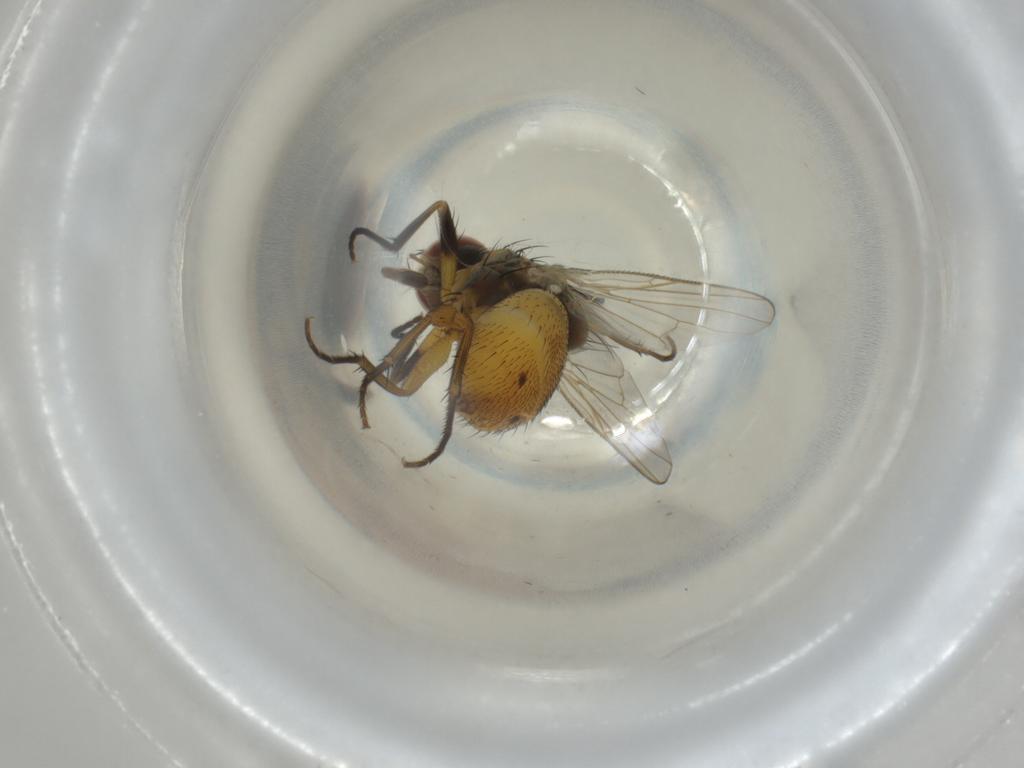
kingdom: Animalia
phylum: Arthropoda
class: Insecta
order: Diptera
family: Muscidae
